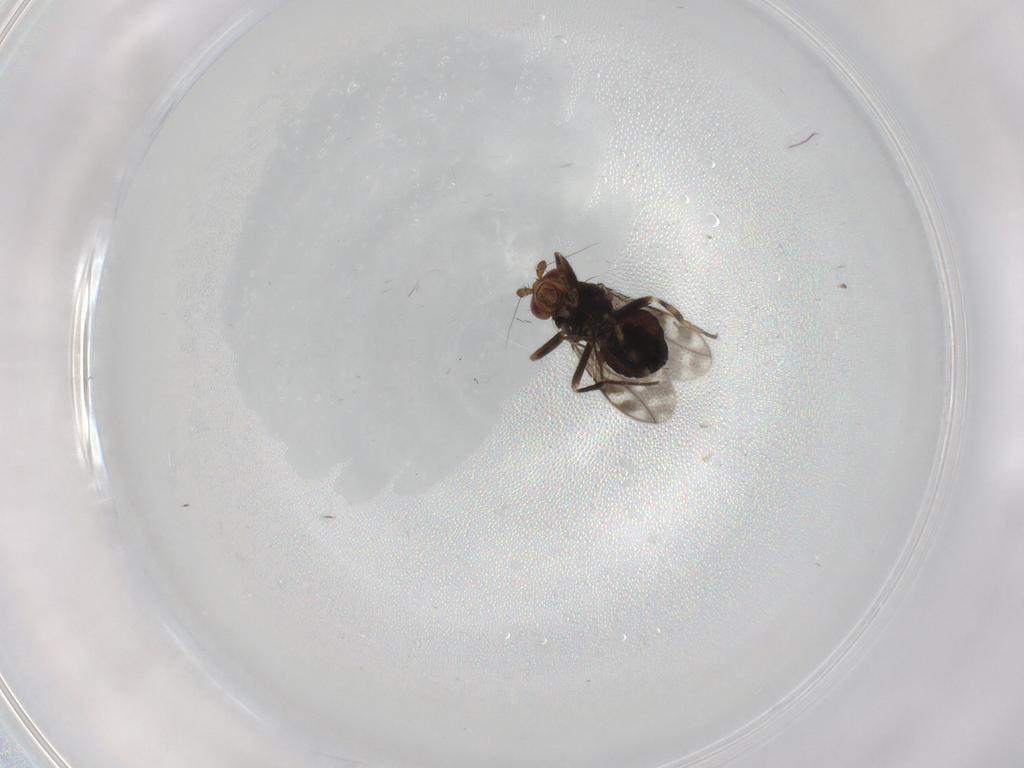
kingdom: Animalia
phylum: Arthropoda
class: Insecta
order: Diptera
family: Sphaeroceridae
